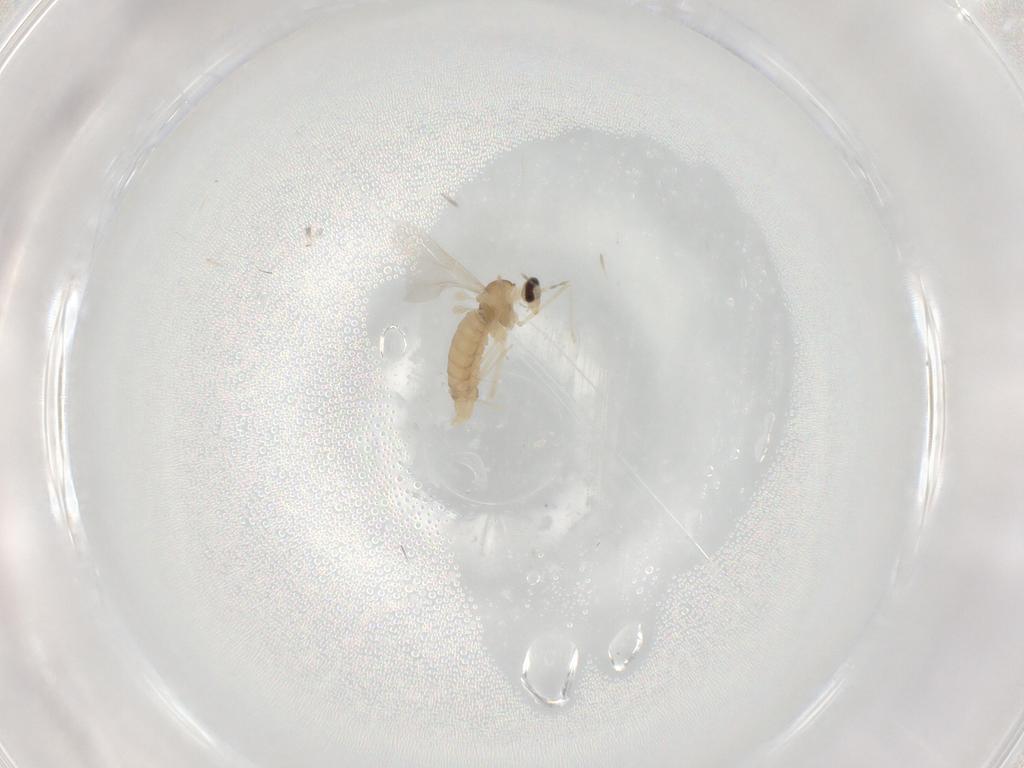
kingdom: Animalia
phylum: Arthropoda
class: Insecta
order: Diptera
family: Cecidomyiidae
